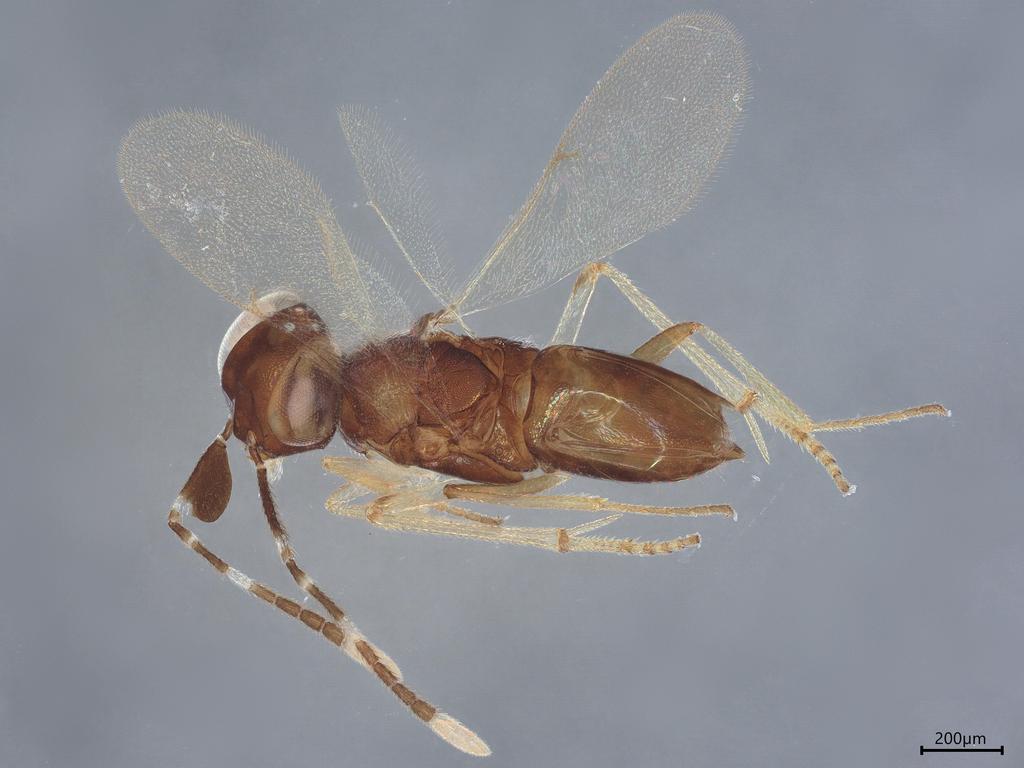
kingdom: Animalia
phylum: Arthropoda
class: Insecta
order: Hymenoptera
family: Encyrtidae
